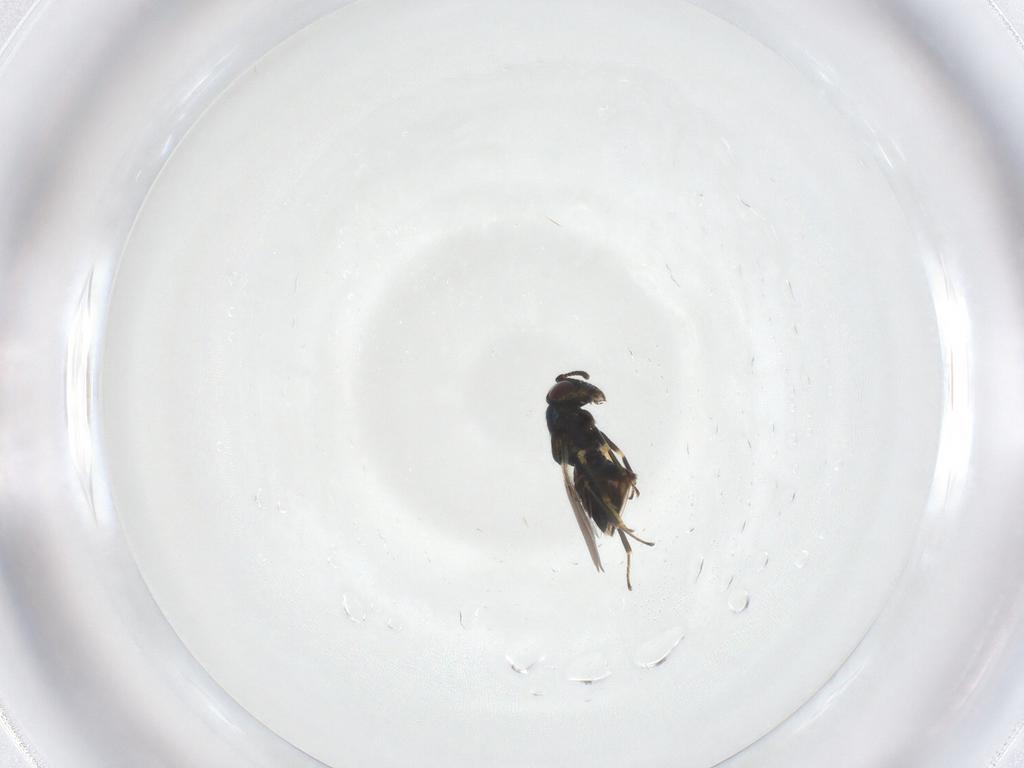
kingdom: Animalia
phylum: Arthropoda
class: Insecta
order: Hymenoptera
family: Encyrtidae
